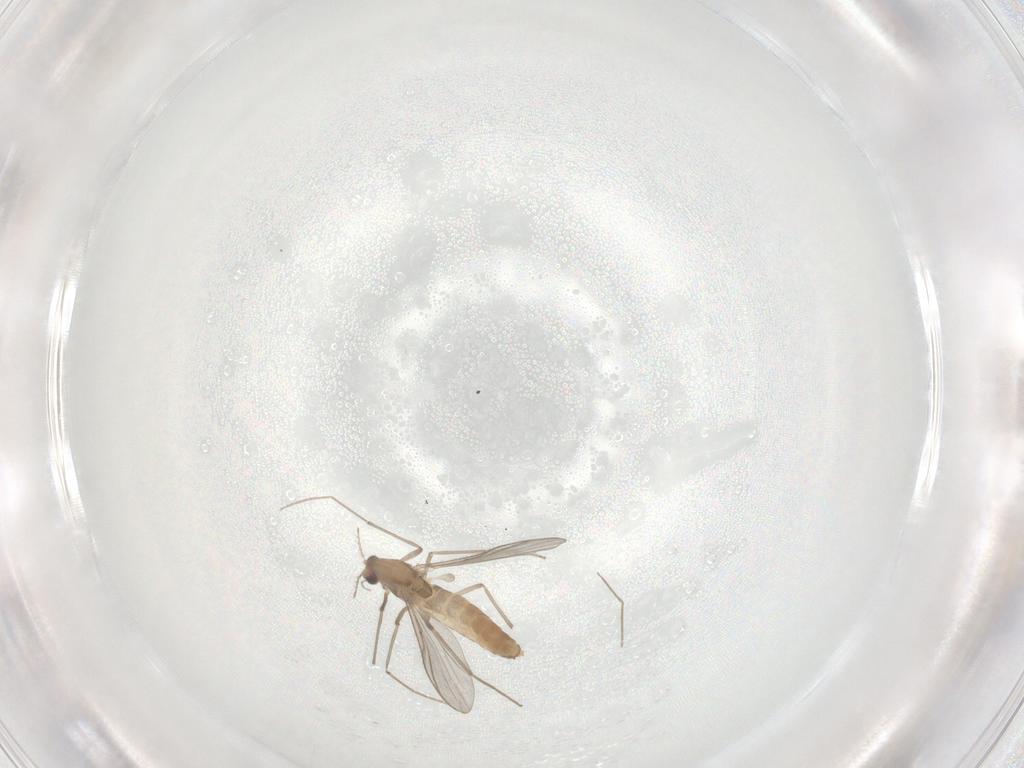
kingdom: Animalia
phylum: Arthropoda
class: Insecta
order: Diptera
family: Chironomidae
